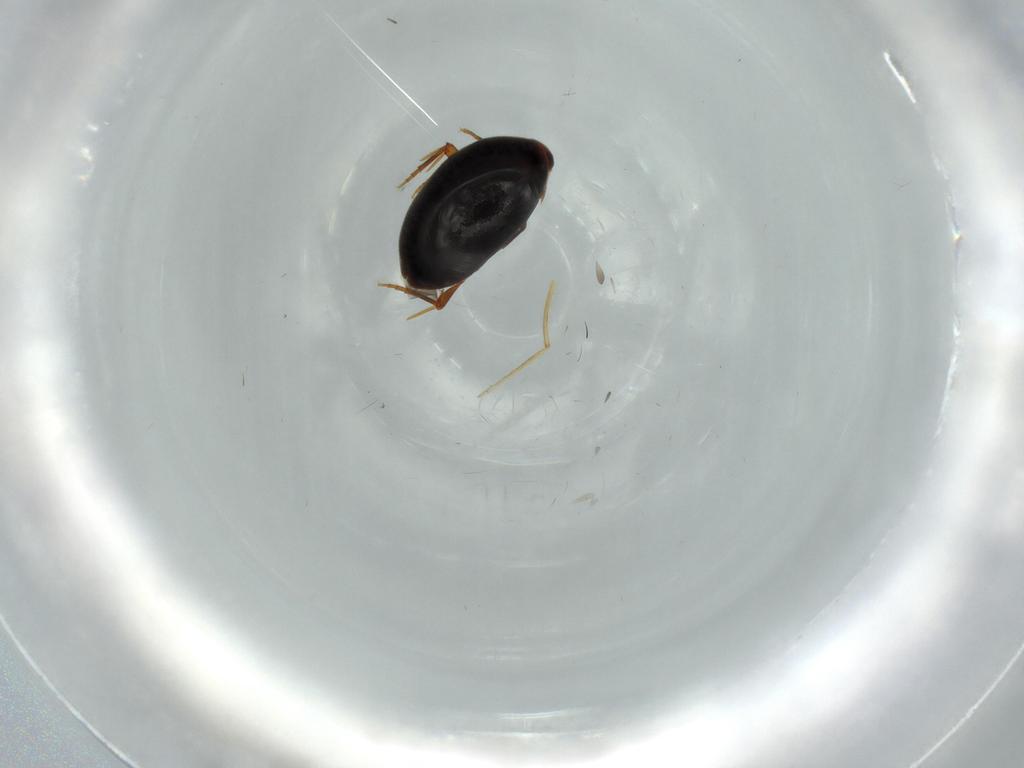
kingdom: Animalia
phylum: Arthropoda
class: Insecta
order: Coleoptera
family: Melandryidae
